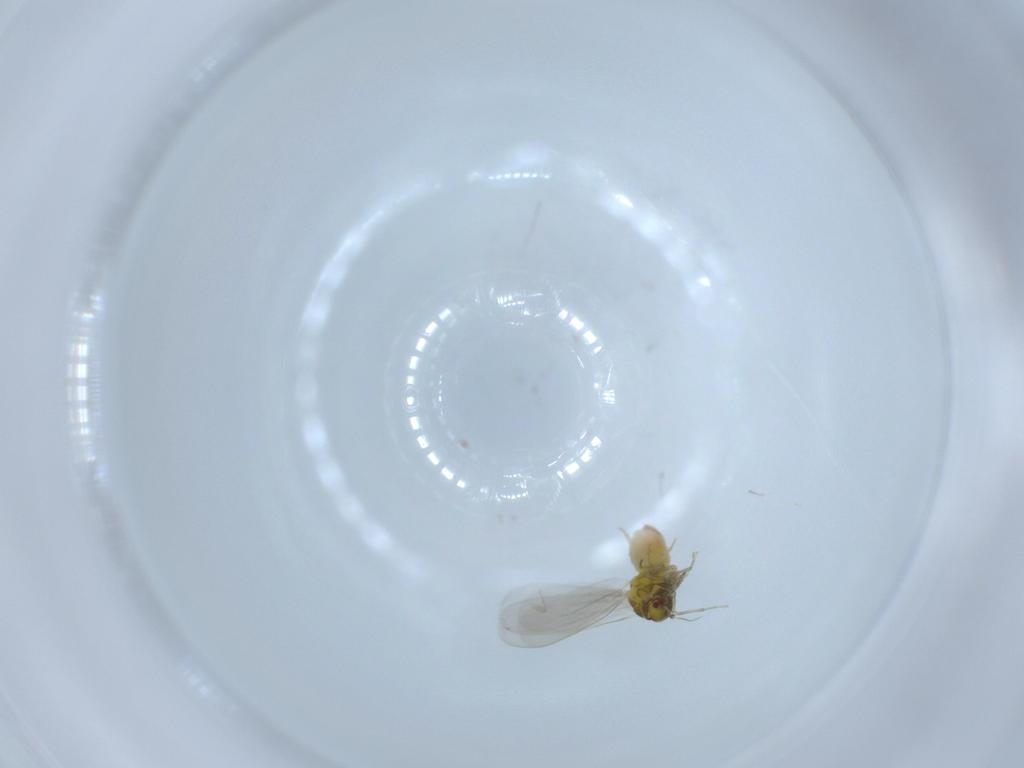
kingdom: Animalia
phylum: Arthropoda
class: Insecta
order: Hemiptera
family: Aleyrodidae
